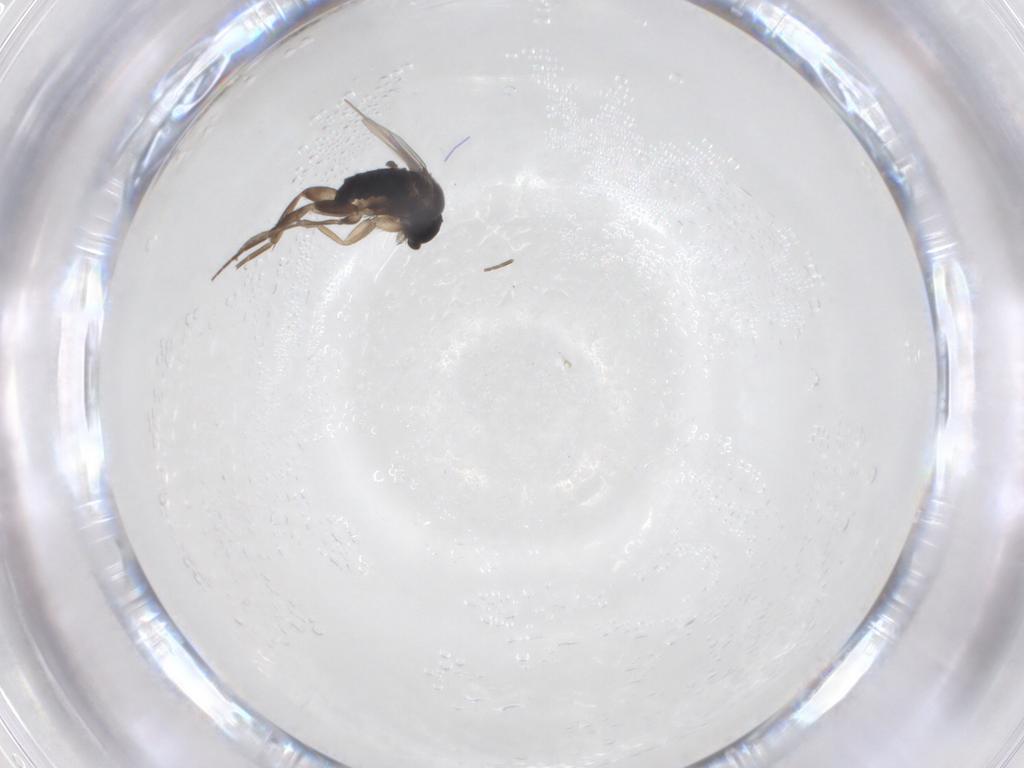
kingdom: Animalia
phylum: Arthropoda
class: Insecta
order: Diptera
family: Phoridae
